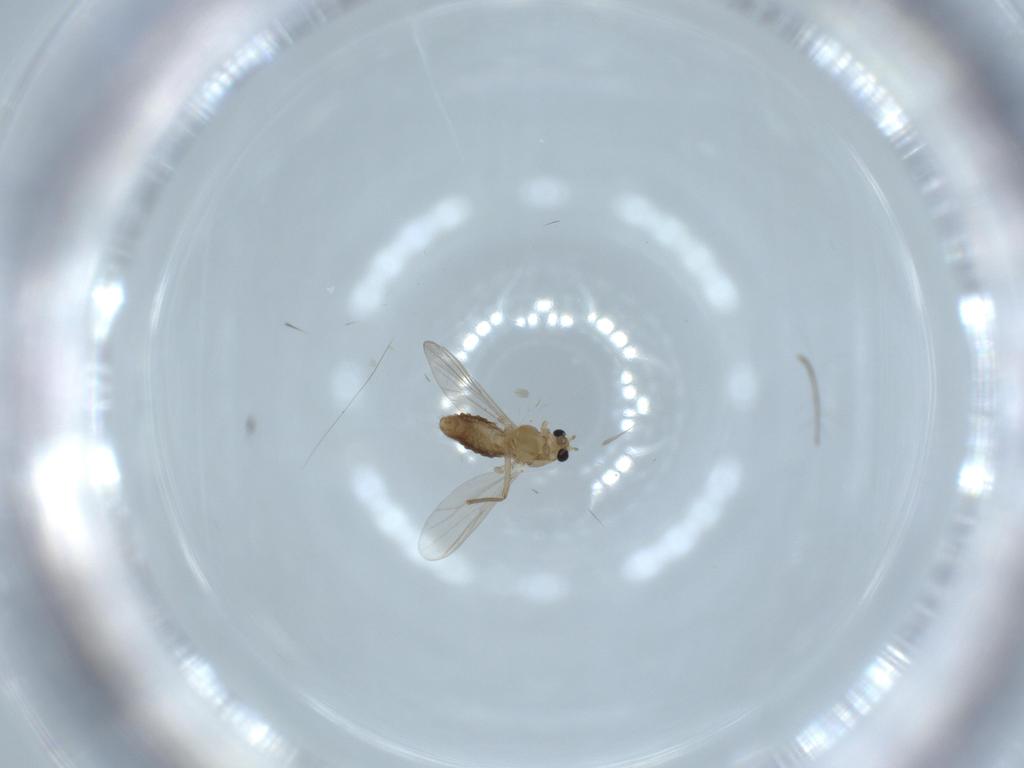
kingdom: Animalia
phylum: Arthropoda
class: Insecta
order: Diptera
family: Chironomidae
